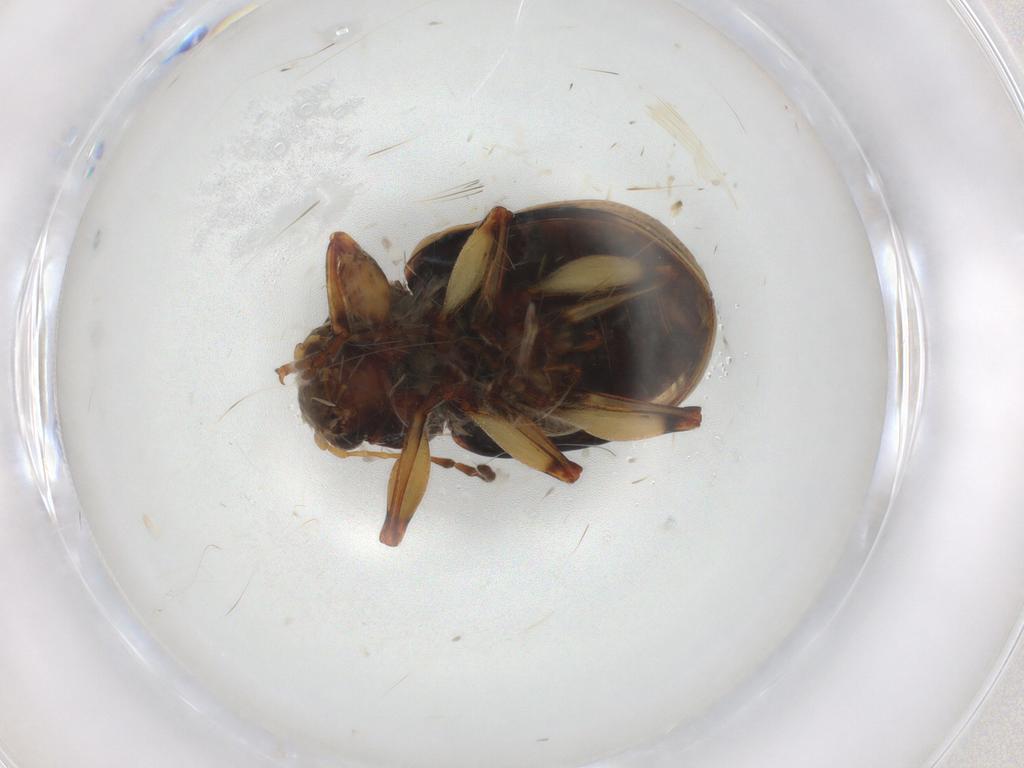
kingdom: Animalia
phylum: Arthropoda
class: Insecta
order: Coleoptera
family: Chrysomelidae
